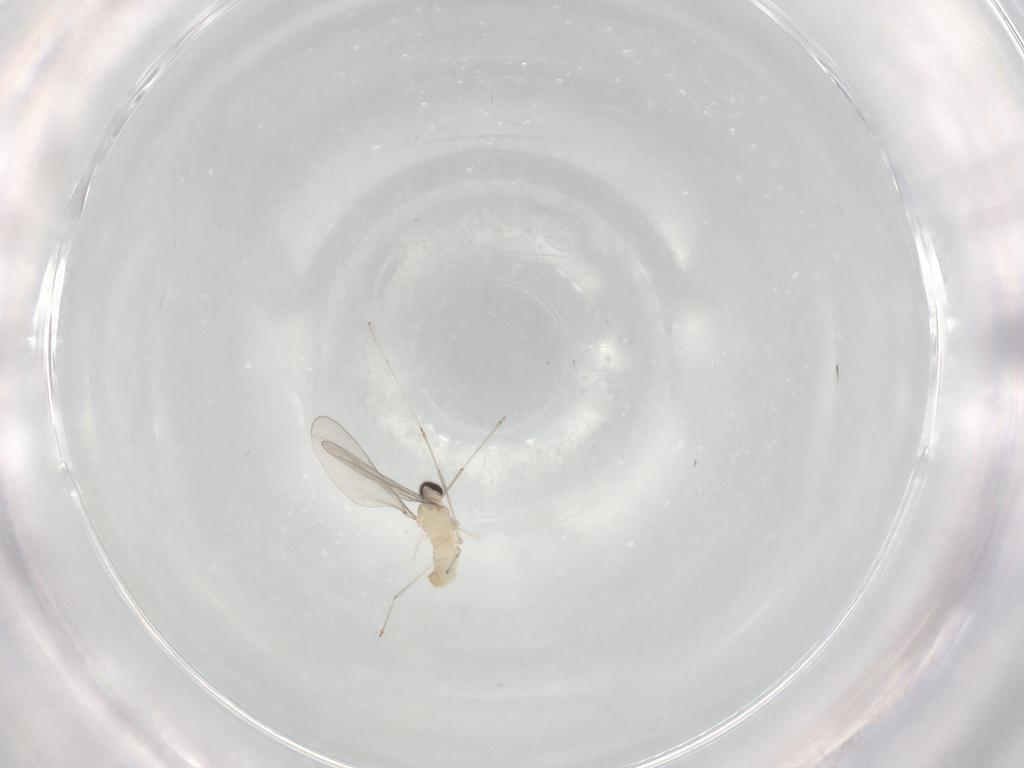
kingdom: Animalia
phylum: Arthropoda
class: Insecta
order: Diptera
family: Cecidomyiidae
